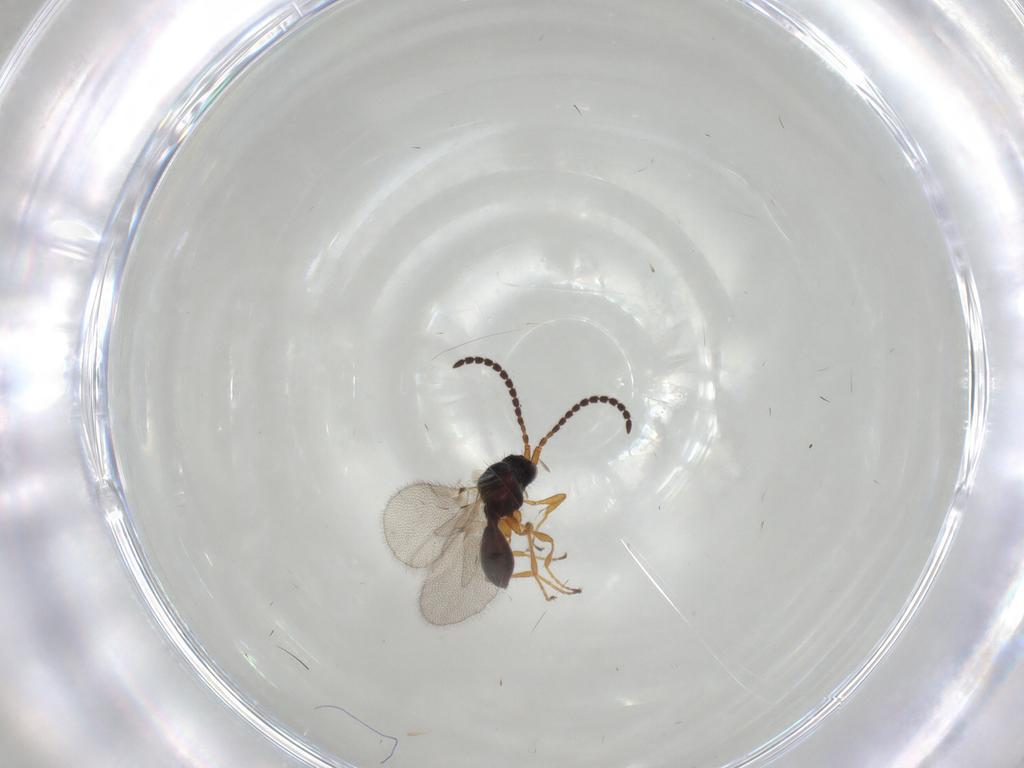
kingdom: Animalia
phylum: Arthropoda
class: Insecta
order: Hymenoptera
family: Diapriidae
